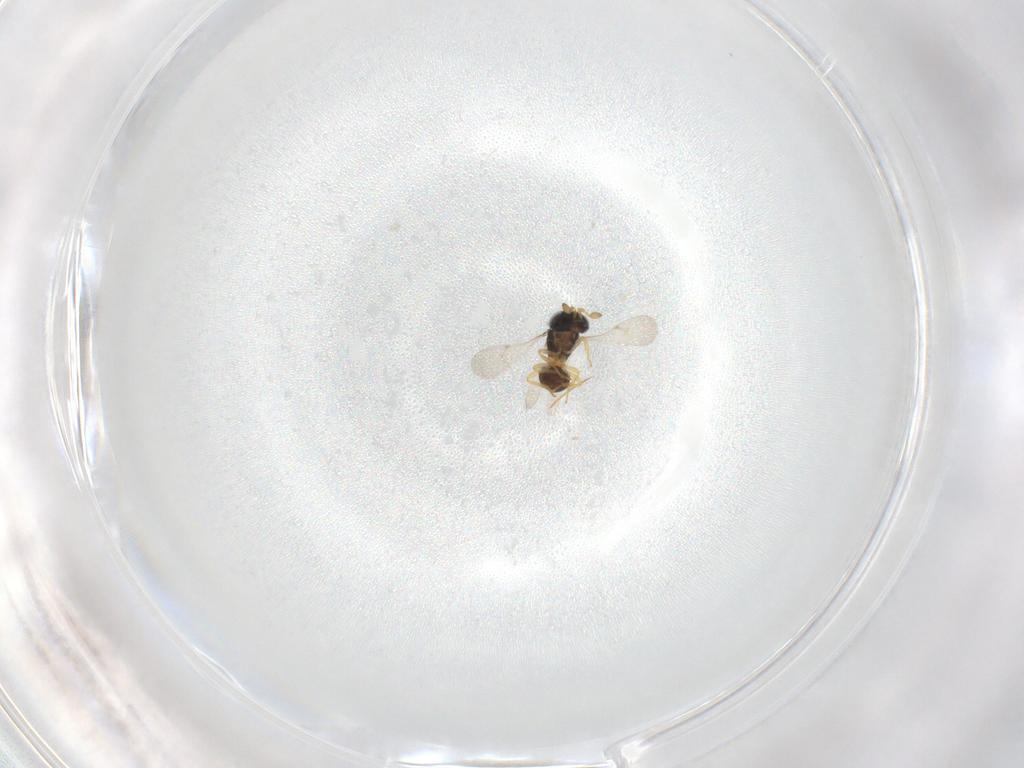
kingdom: Animalia
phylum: Arthropoda
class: Insecta
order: Hymenoptera
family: Scelionidae
